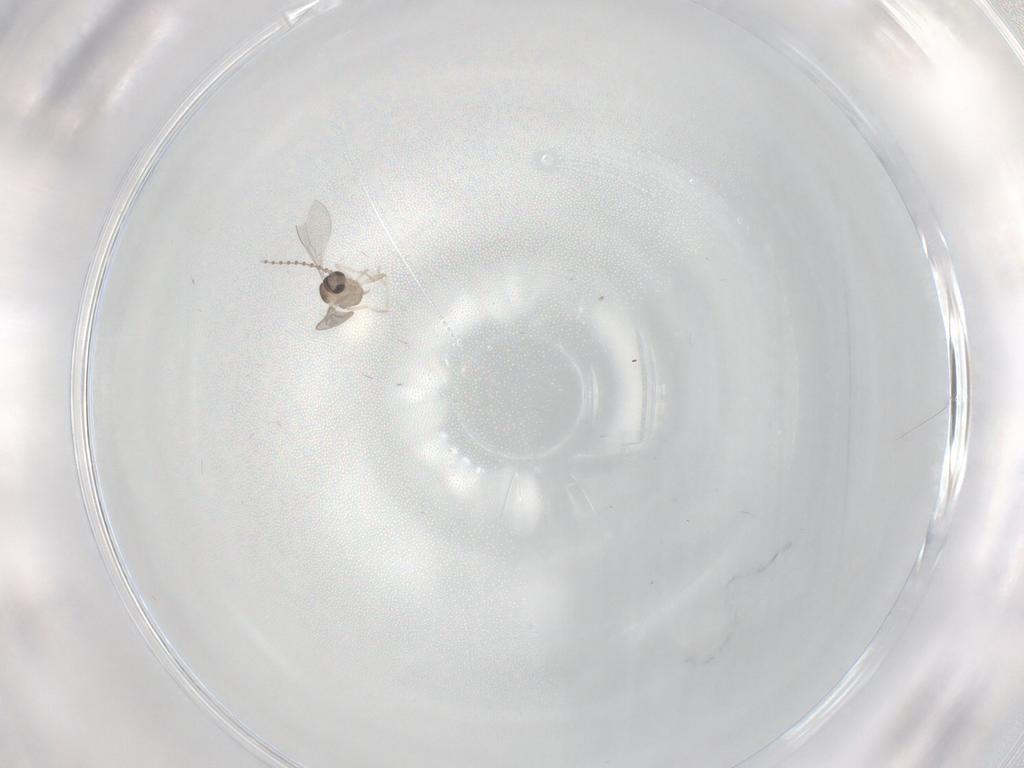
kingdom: Animalia
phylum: Arthropoda
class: Insecta
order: Diptera
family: Cecidomyiidae
